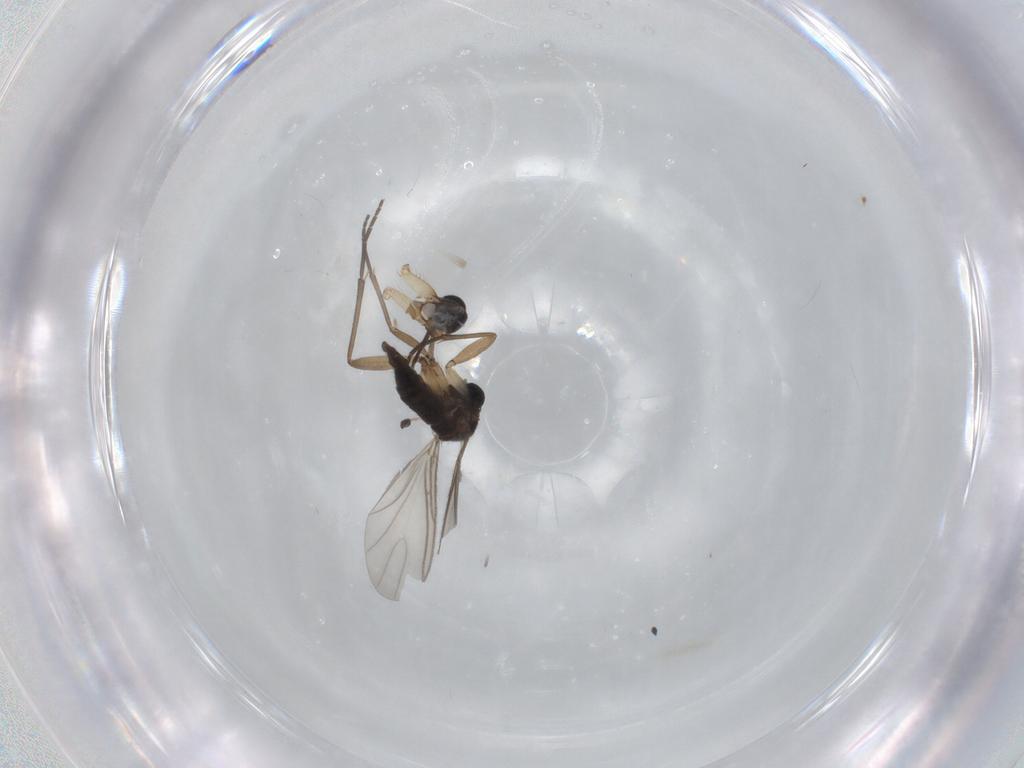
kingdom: Animalia
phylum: Arthropoda
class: Insecta
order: Diptera
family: Sciaridae
